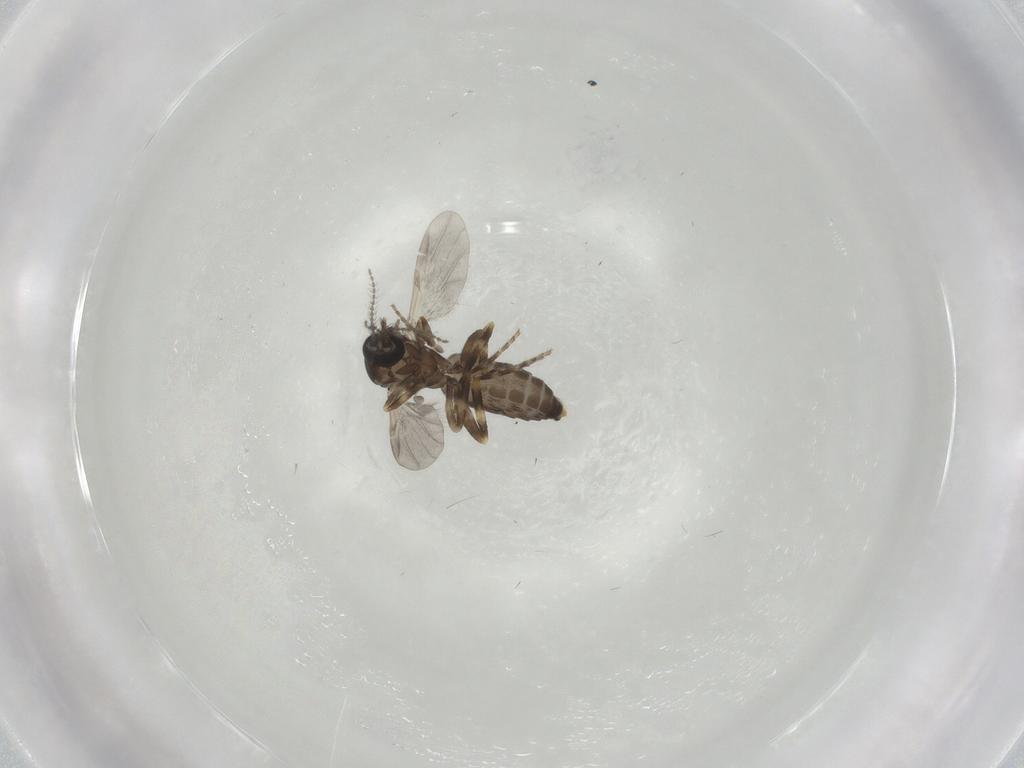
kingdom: Animalia
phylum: Arthropoda
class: Insecta
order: Diptera
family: Ceratopogonidae
